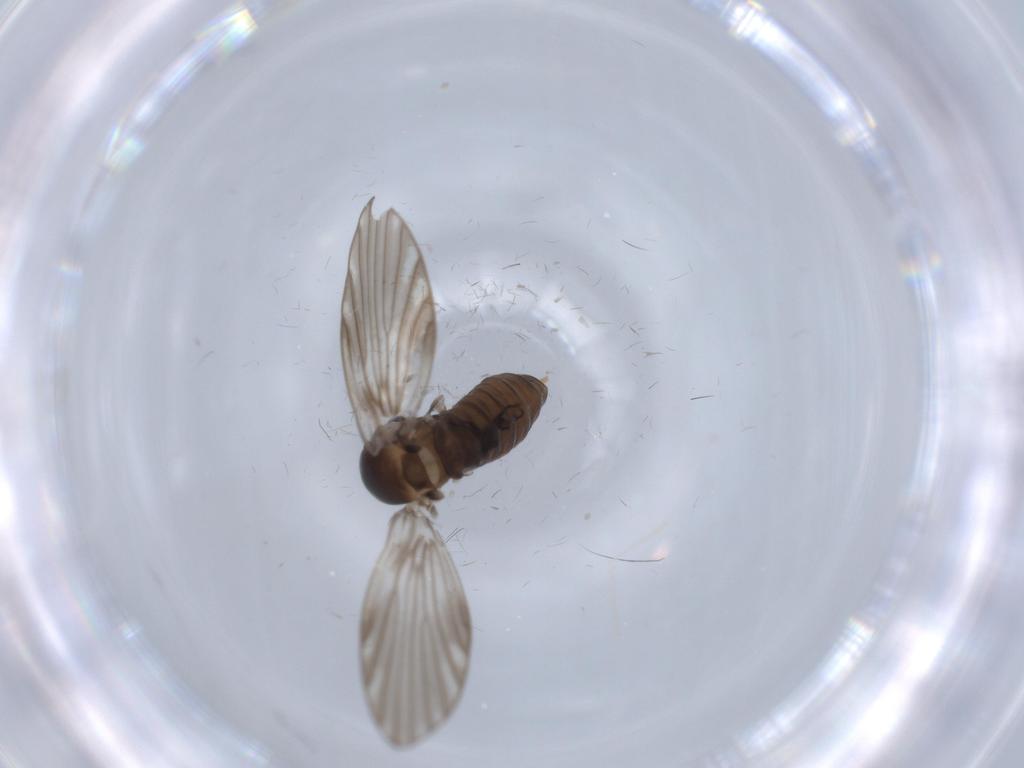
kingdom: Animalia
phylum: Arthropoda
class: Insecta
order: Diptera
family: Psychodidae
